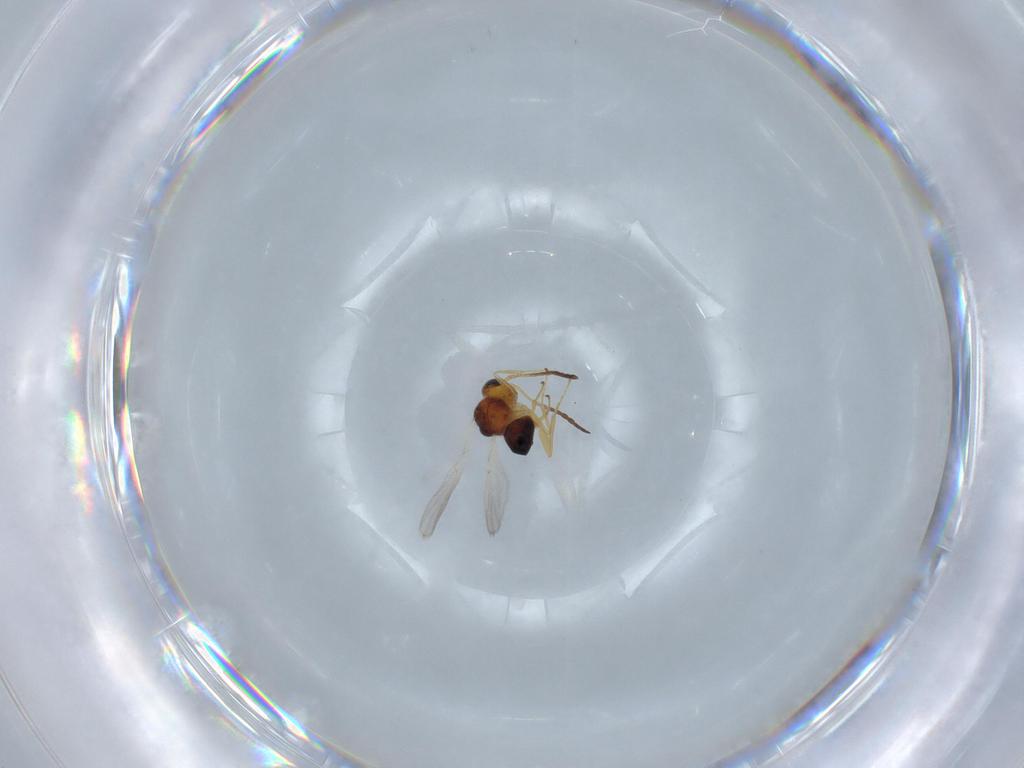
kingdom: Animalia
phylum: Arthropoda
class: Insecta
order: Hymenoptera
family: Figitidae
